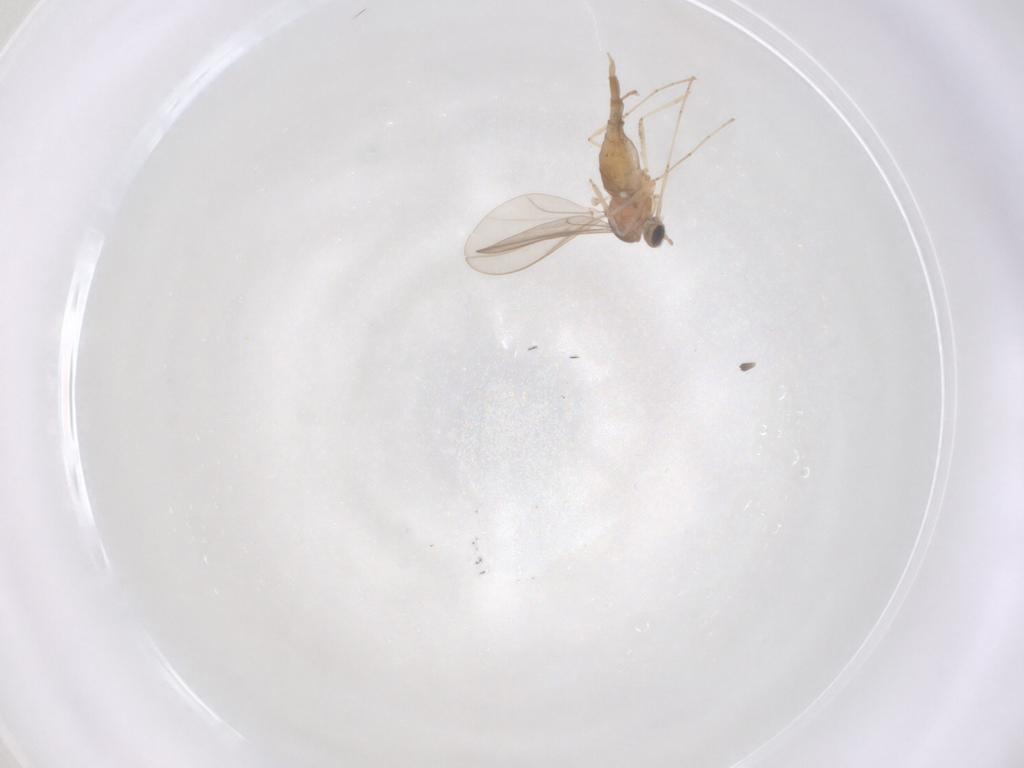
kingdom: Animalia
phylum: Arthropoda
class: Insecta
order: Diptera
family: Cecidomyiidae
